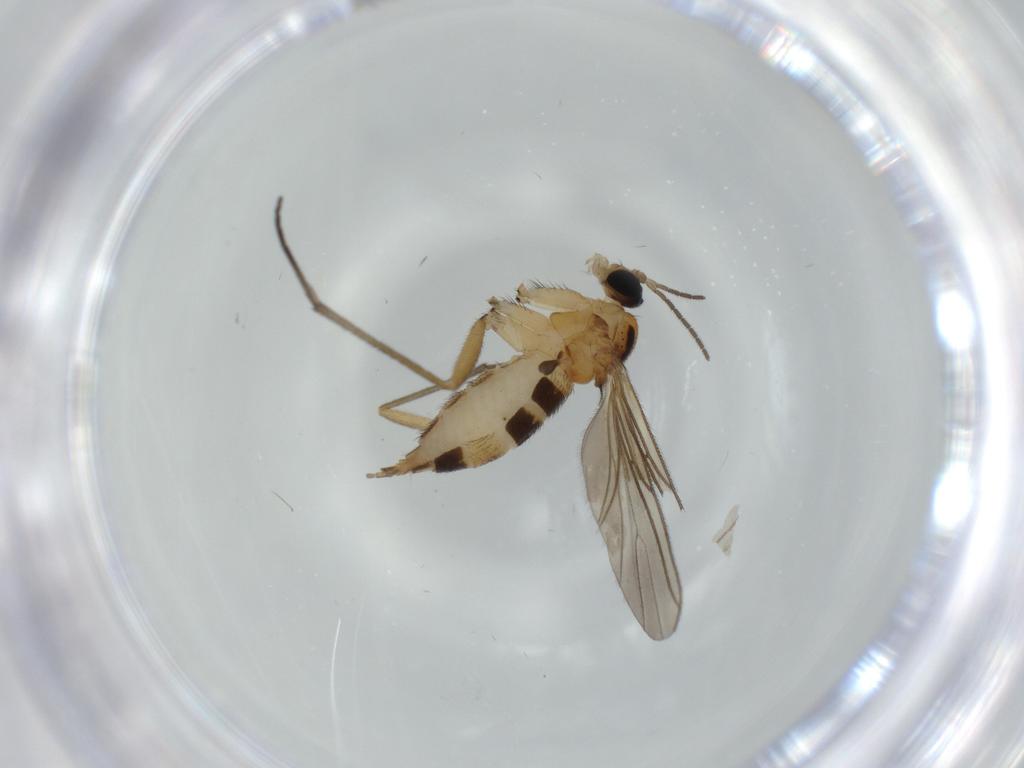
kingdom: Animalia
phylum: Arthropoda
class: Insecta
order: Diptera
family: Sciaridae
